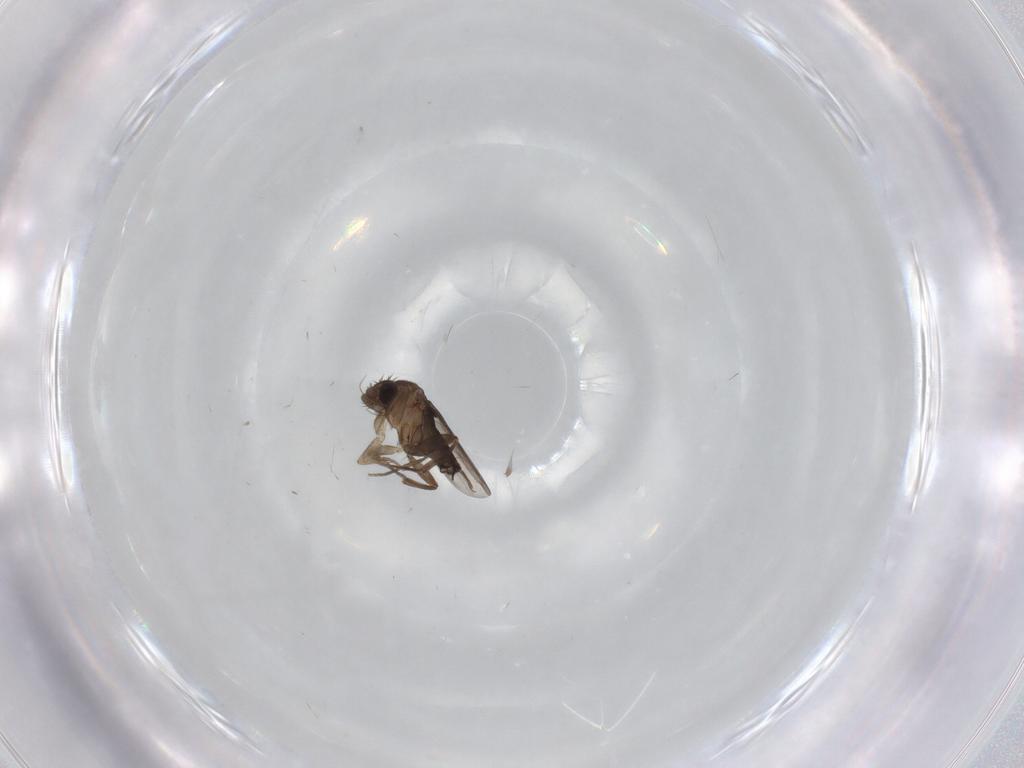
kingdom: Animalia
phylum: Arthropoda
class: Insecta
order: Diptera
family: Phoridae
